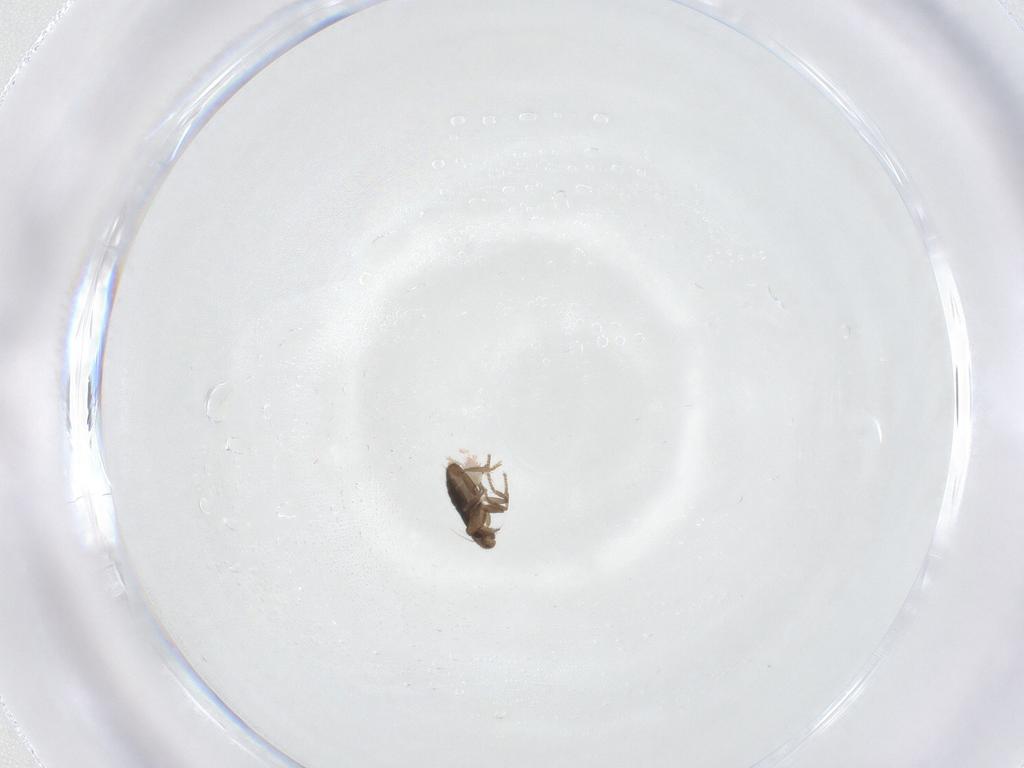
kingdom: Animalia
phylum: Arthropoda
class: Insecta
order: Diptera
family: Phoridae
